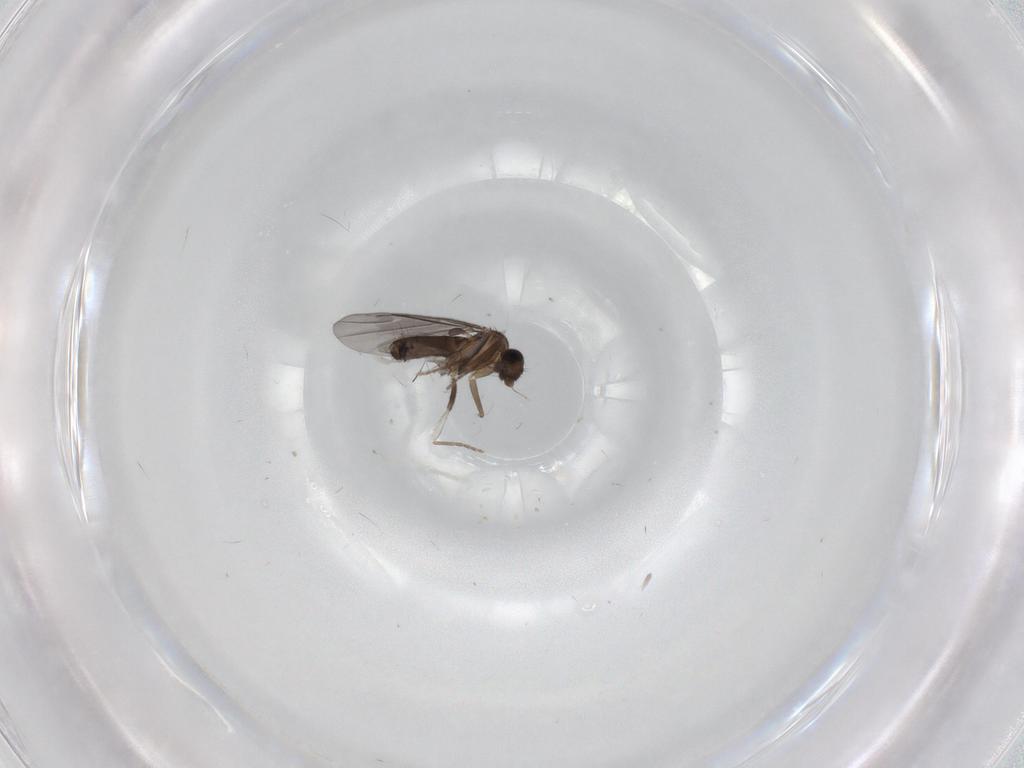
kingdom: Animalia
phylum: Arthropoda
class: Insecta
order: Diptera
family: Phoridae
